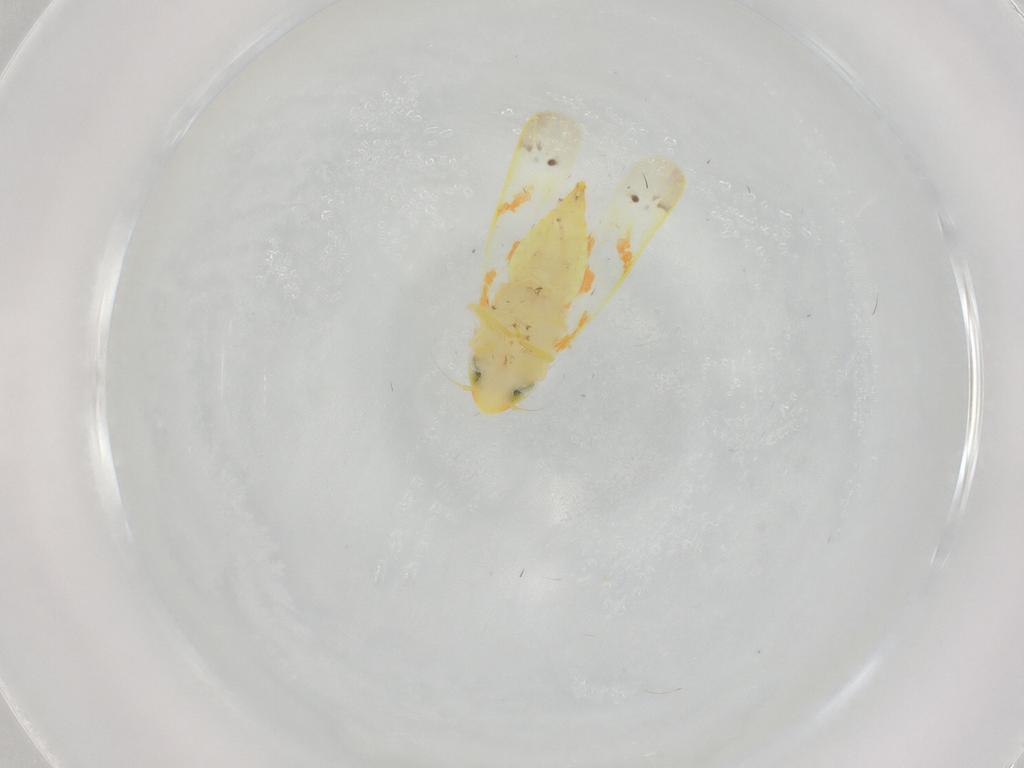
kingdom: Animalia
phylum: Arthropoda
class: Insecta
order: Hemiptera
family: Cicadellidae
